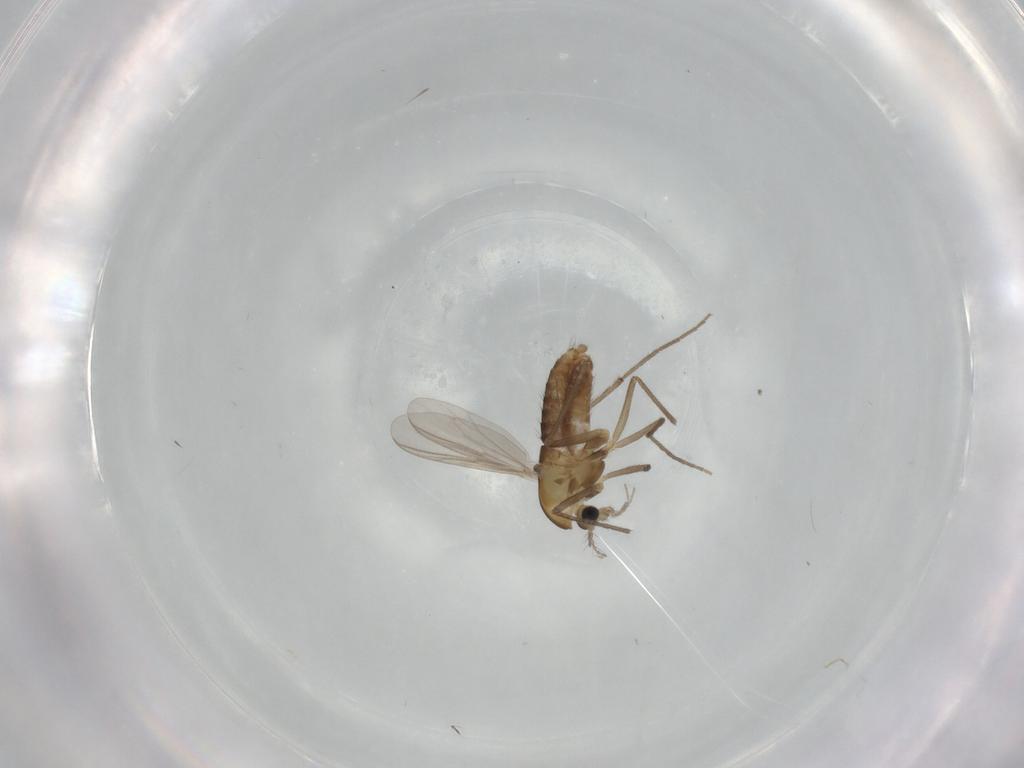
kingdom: Animalia
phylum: Arthropoda
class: Insecta
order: Diptera
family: Chironomidae
